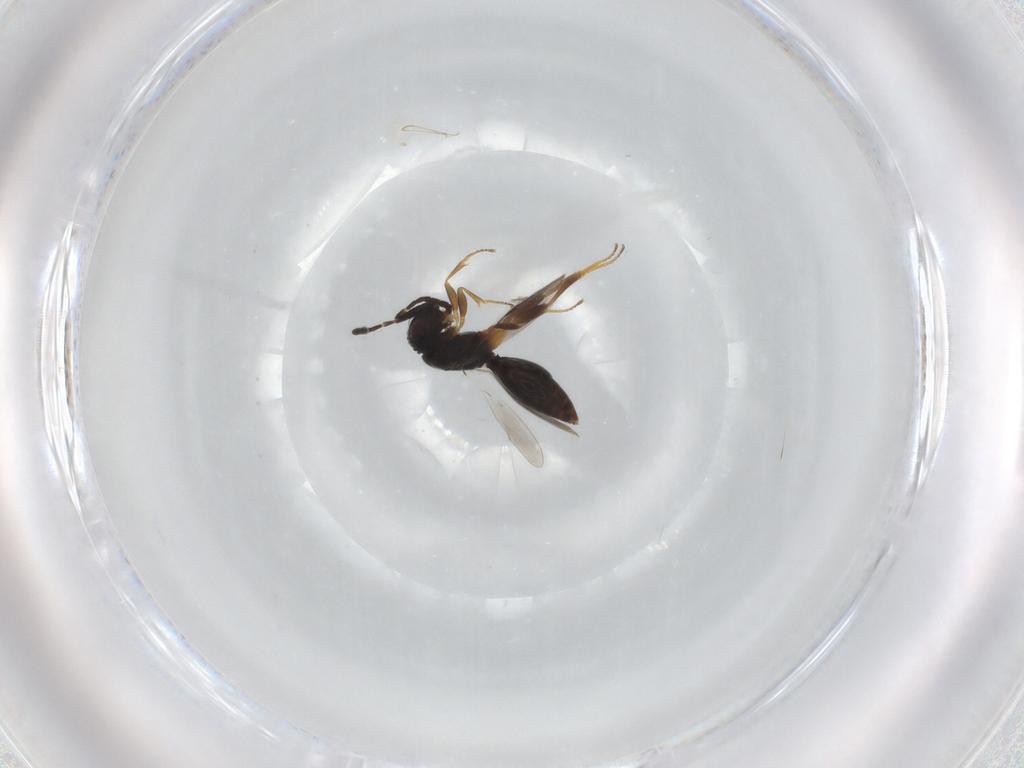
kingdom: Animalia
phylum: Arthropoda
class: Insecta
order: Hymenoptera
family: Megaspilidae
